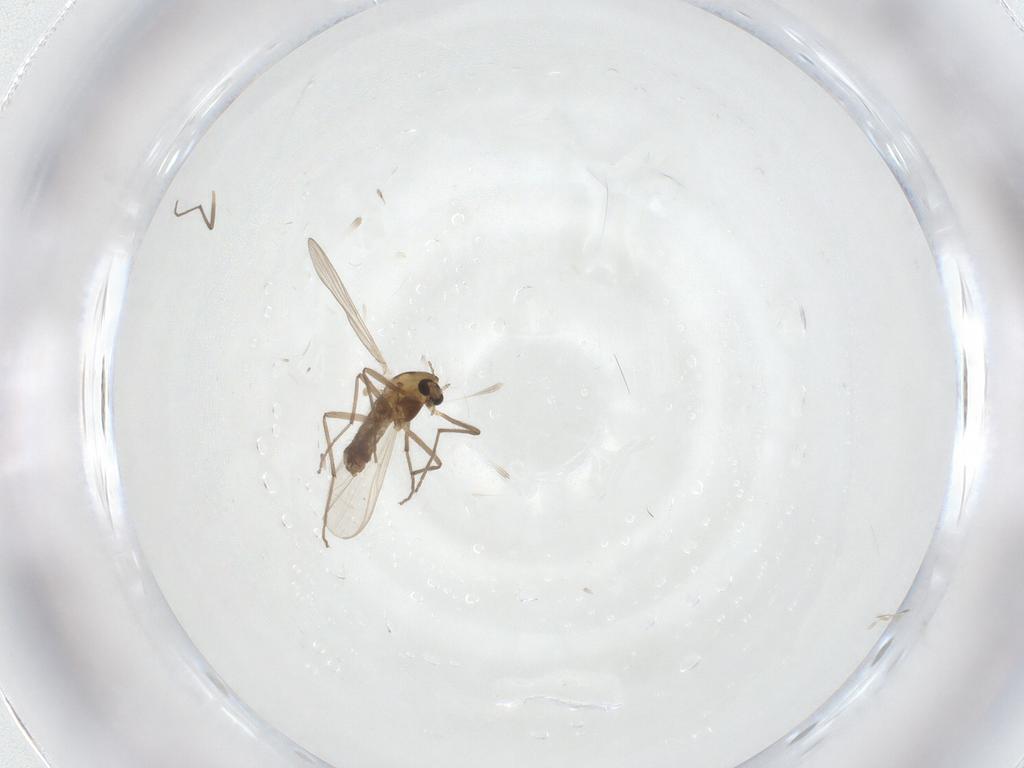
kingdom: Animalia
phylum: Arthropoda
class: Insecta
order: Diptera
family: Chironomidae
